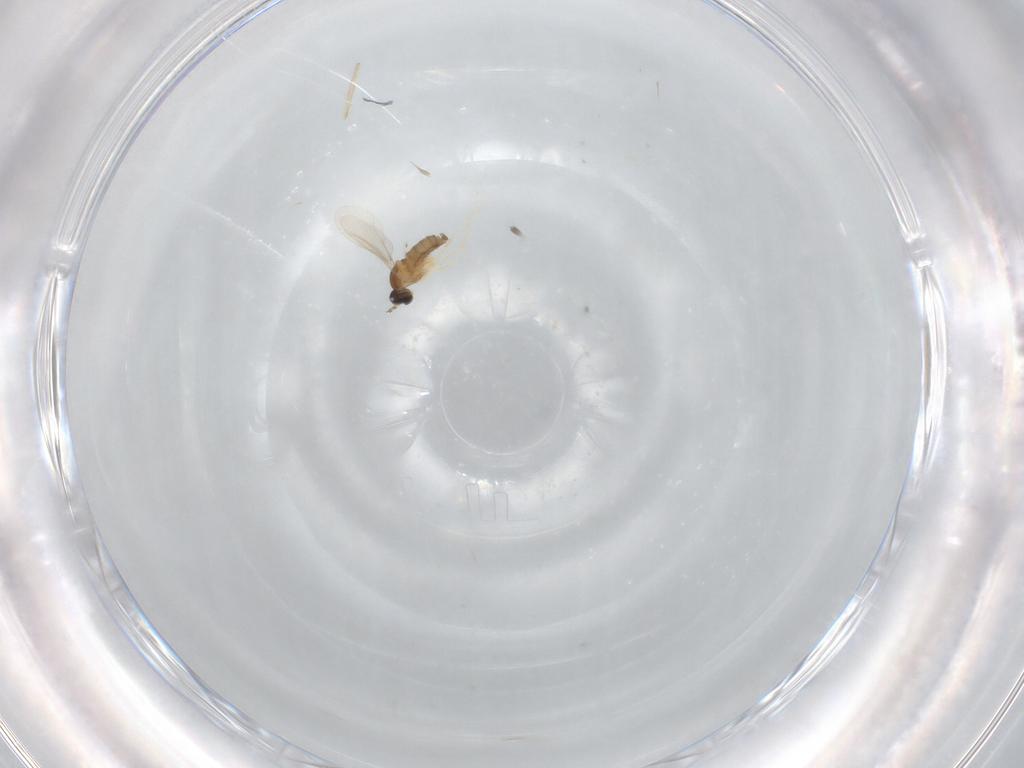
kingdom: Animalia
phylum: Arthropoda
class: Insecta
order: Diptera
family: Cecidomyiidae
